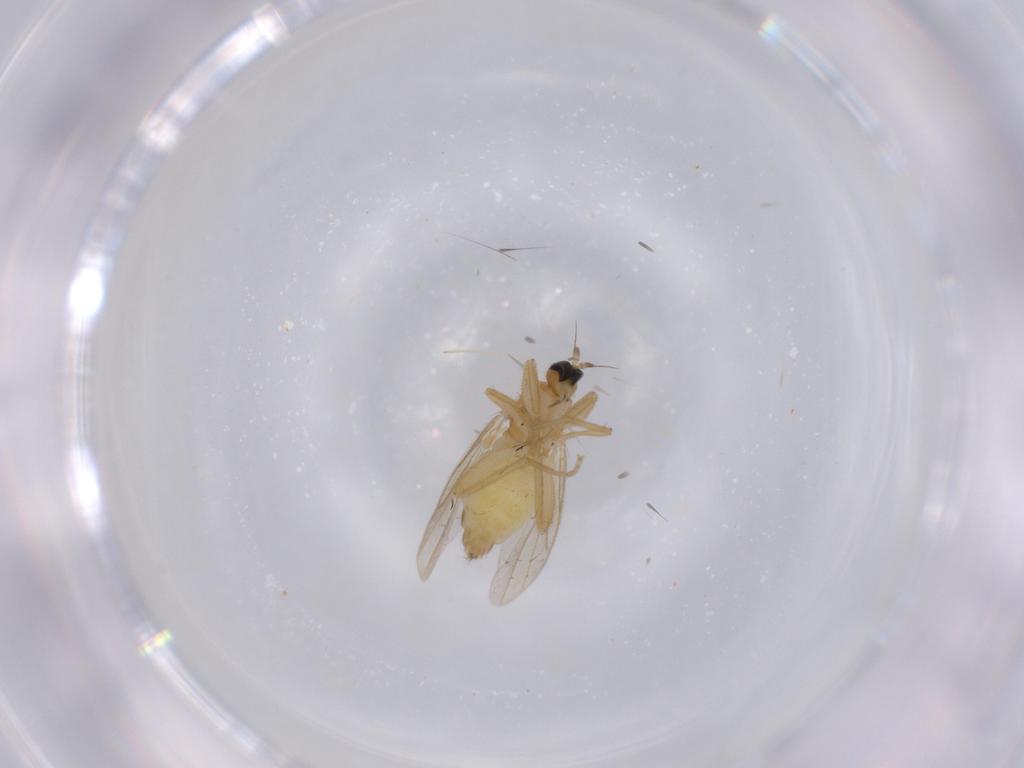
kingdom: Animalia
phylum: Arthropoda
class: Insecta
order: Diptera
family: Hybotidae
